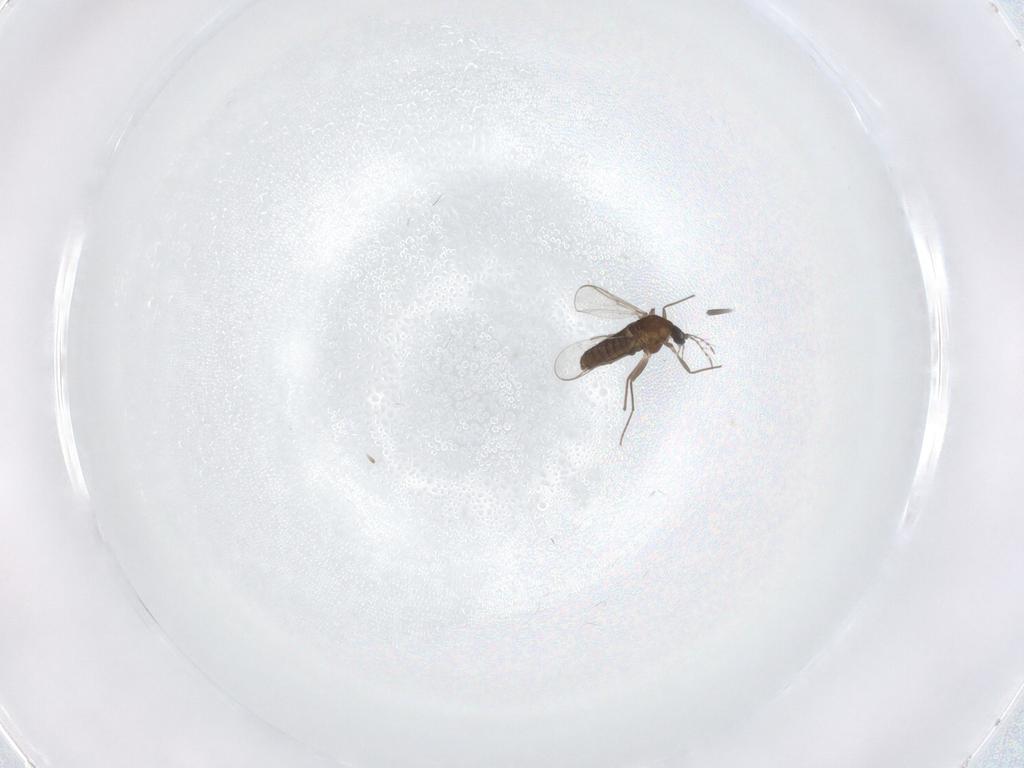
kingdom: Animalia
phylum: Arthropoda
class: Insecta
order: Diptera
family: Chironomidae
